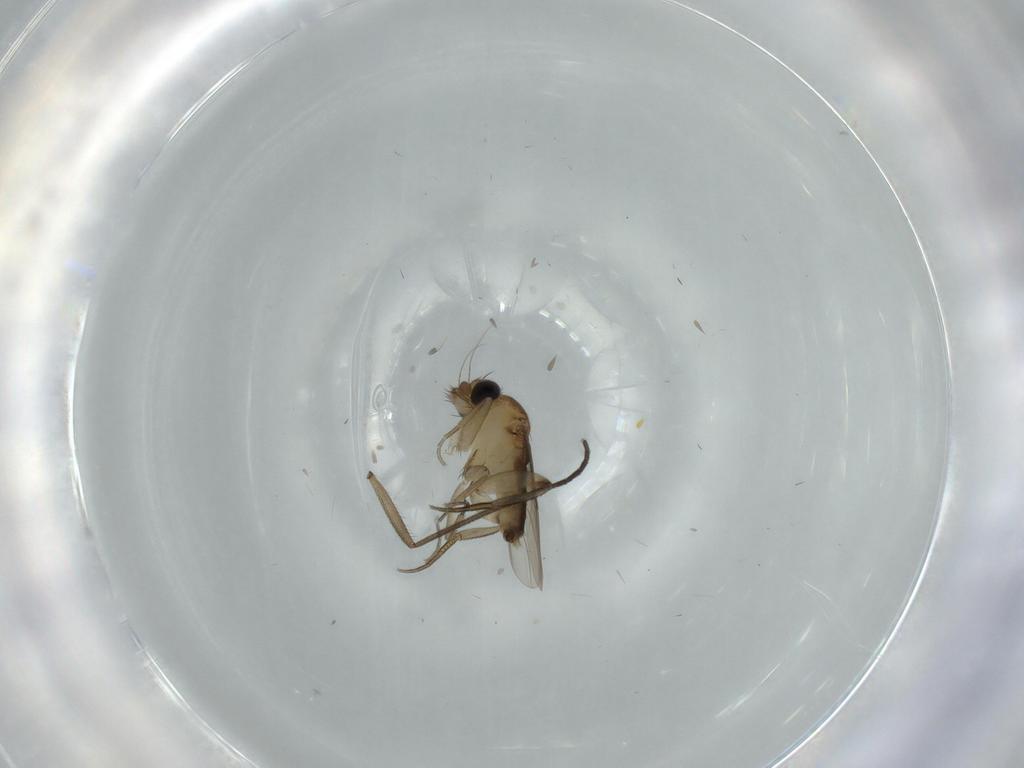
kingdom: Animalia
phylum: Arthropoda
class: Insecta
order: Diptera
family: Phoridae
